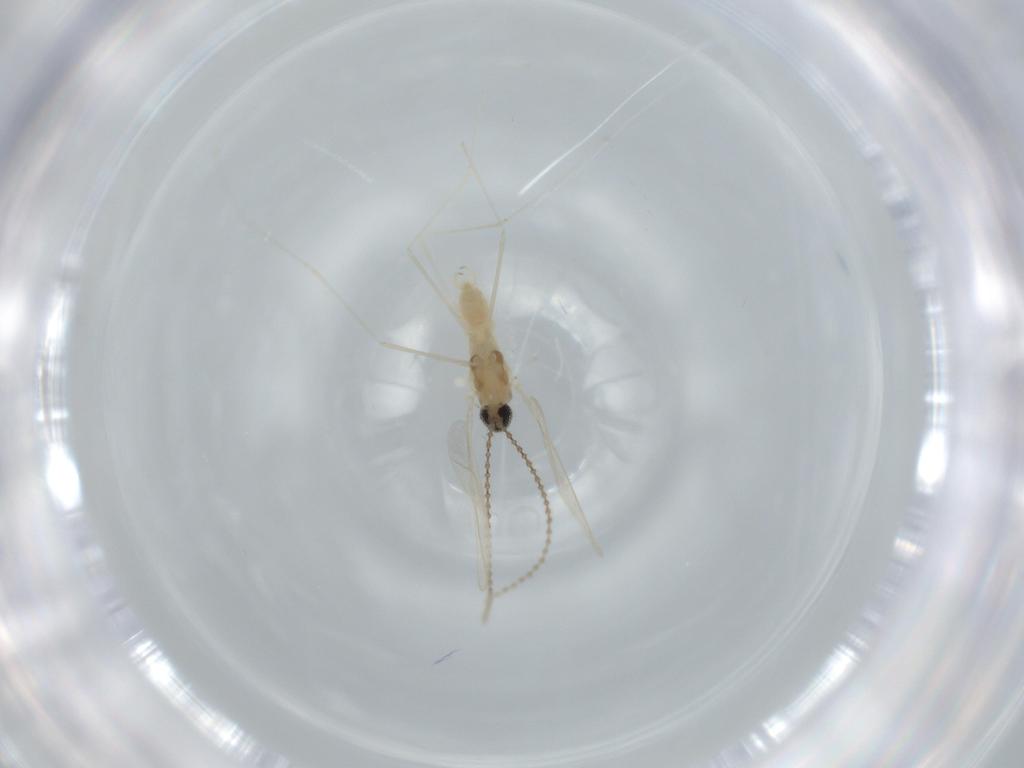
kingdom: Animalia
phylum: Arthropoda
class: Insecta
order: Diptera
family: Cecidomyiidae
